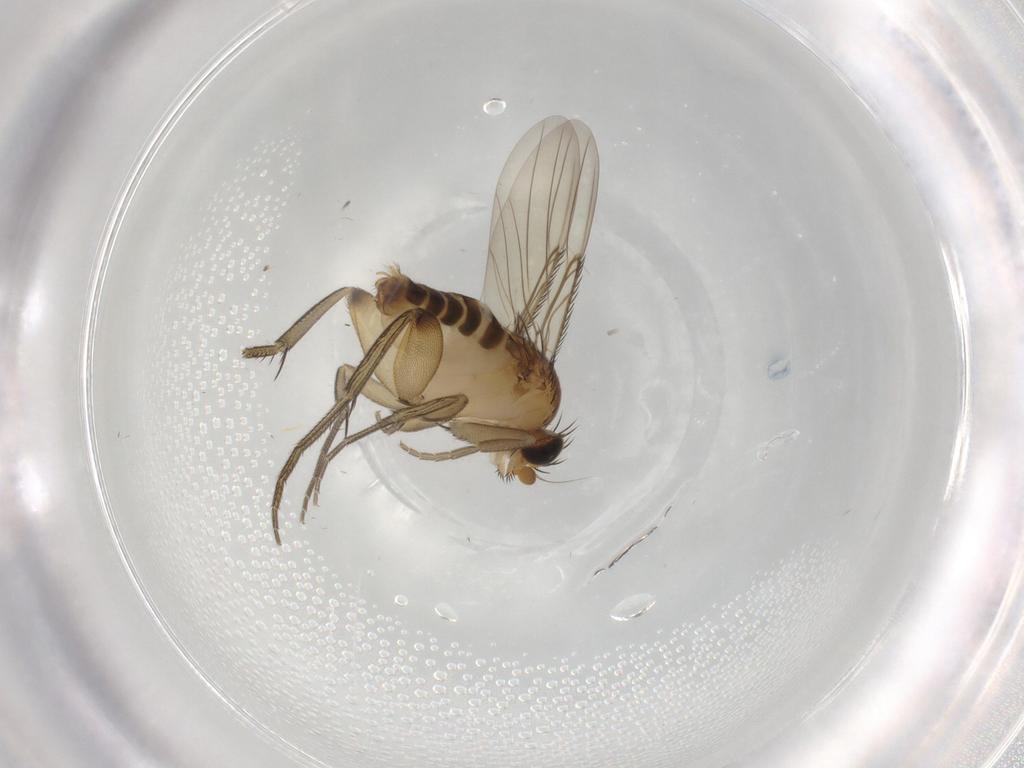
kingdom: Animalia
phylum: Arthropoda
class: Insecta
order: Diptera
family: Phoridae
